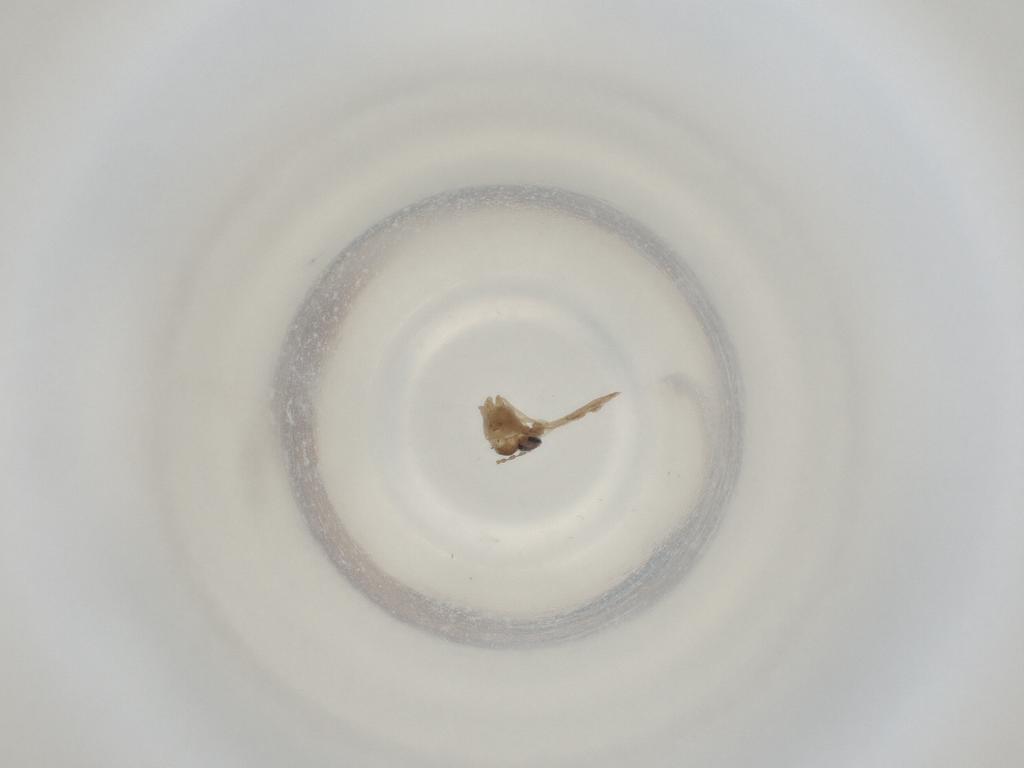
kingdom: Animalia
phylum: Arthropoda
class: Insecta
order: Diptera
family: Cecidomyiidae
